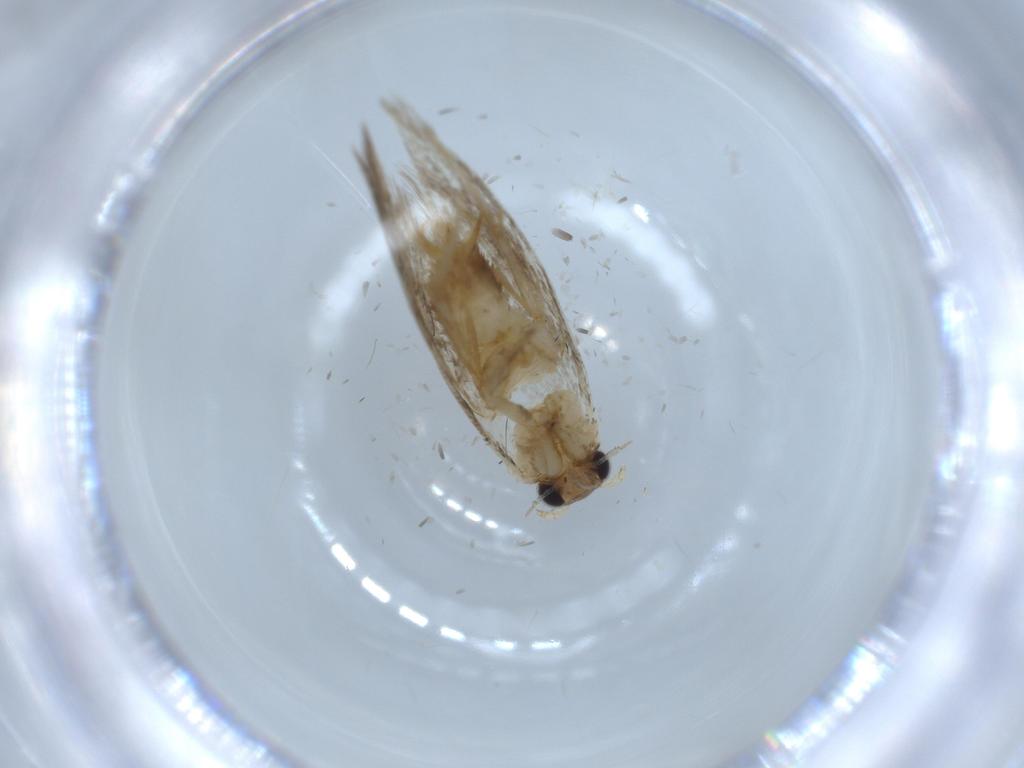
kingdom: Animalia
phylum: Arthropoda
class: Insecta
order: Lepidoptera
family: Tineidae
